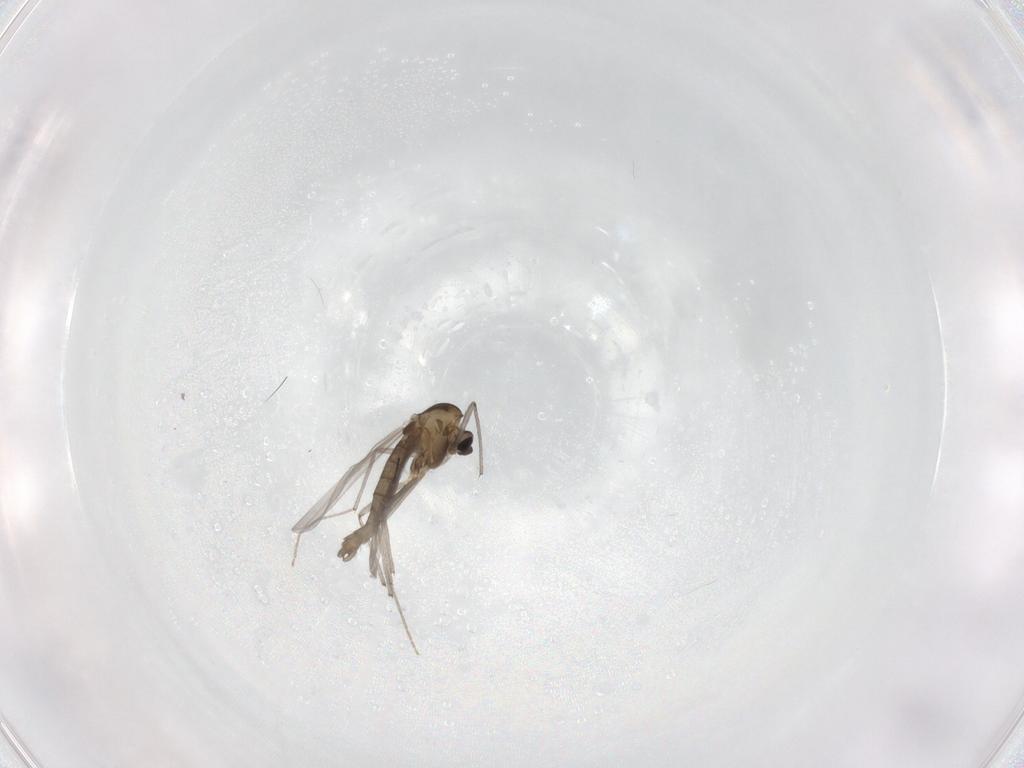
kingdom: Animalia
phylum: Arthropoda
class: Insecta
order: Diptera
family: Chironomidae
